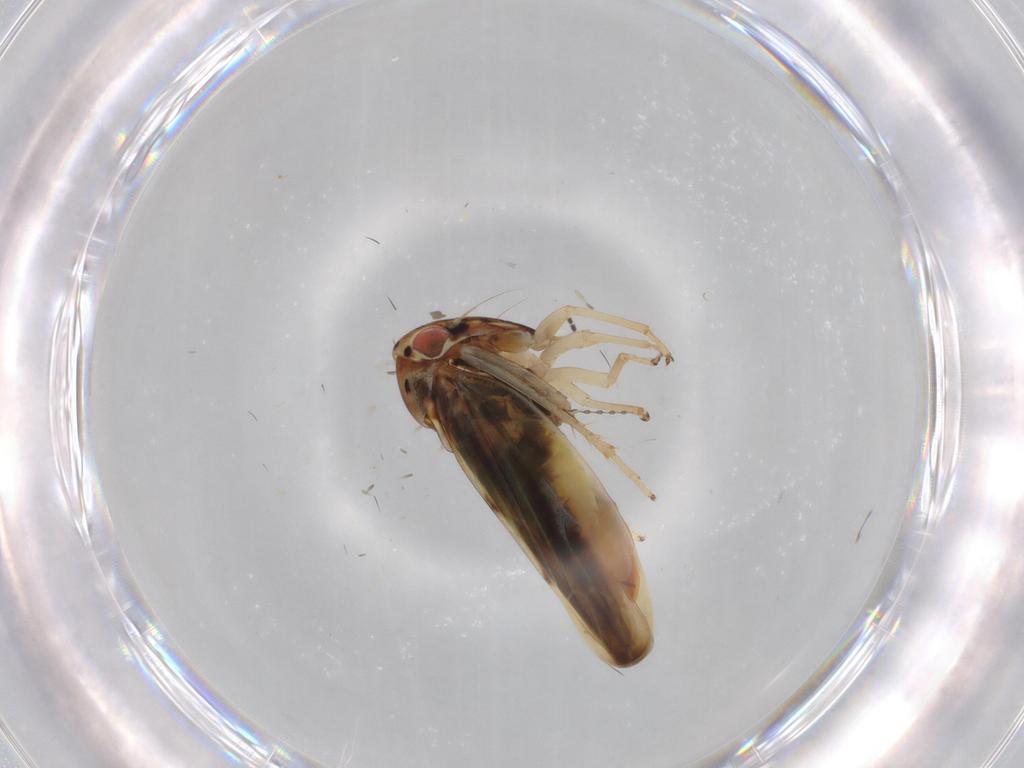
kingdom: Animalia
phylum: Arthropoda
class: Insecta
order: Hemiptera
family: Cicadellidae
